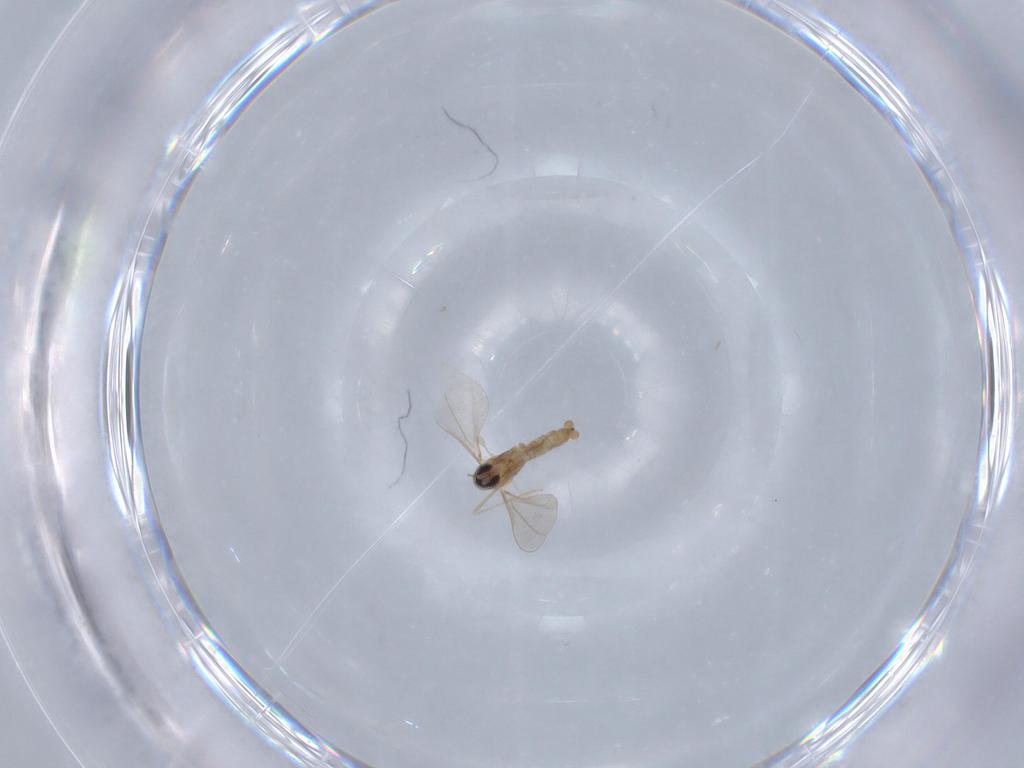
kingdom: Animalia
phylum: Arthropoda
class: Insecta
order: Diptera
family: Cecidomyiidae
